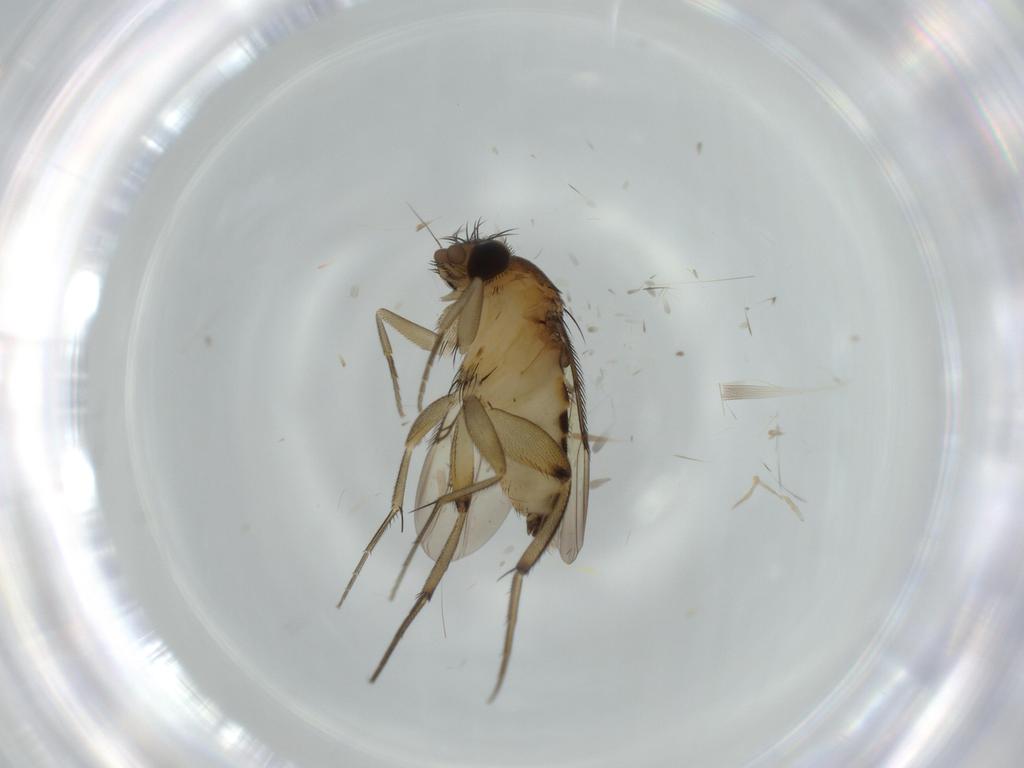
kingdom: Animalia
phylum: Arthropoda
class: Insecta
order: Diptera
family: Phoridae
